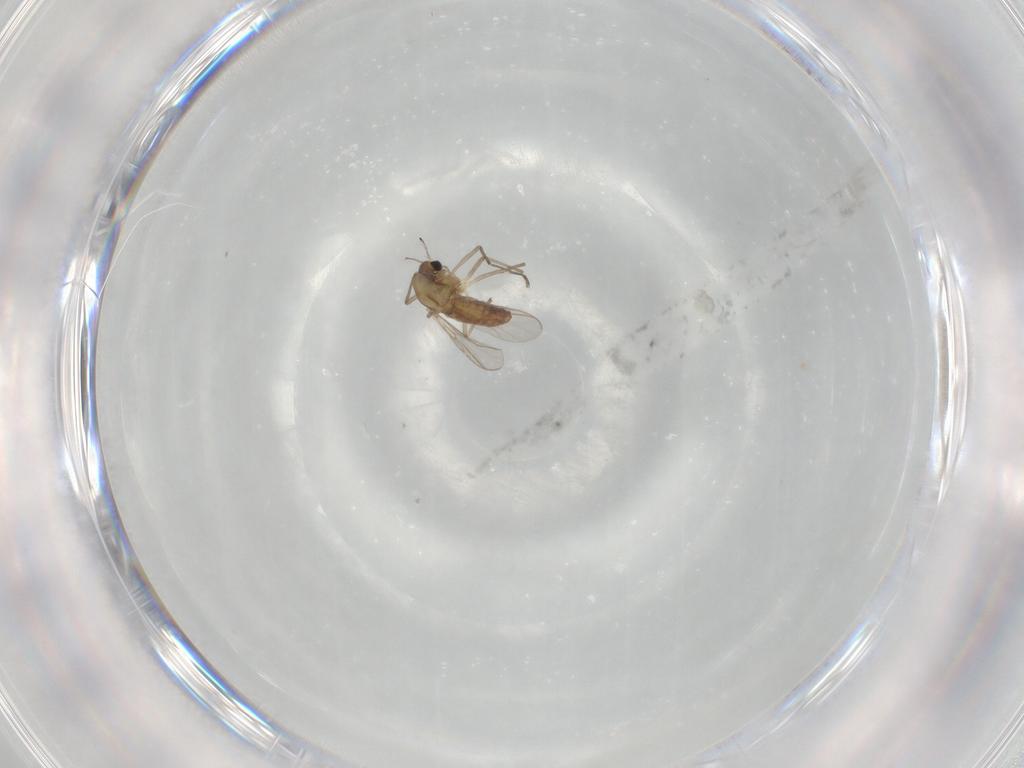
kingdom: Animalia
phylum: Arthropoda
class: Insecta
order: Diptera
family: Chironomidae
